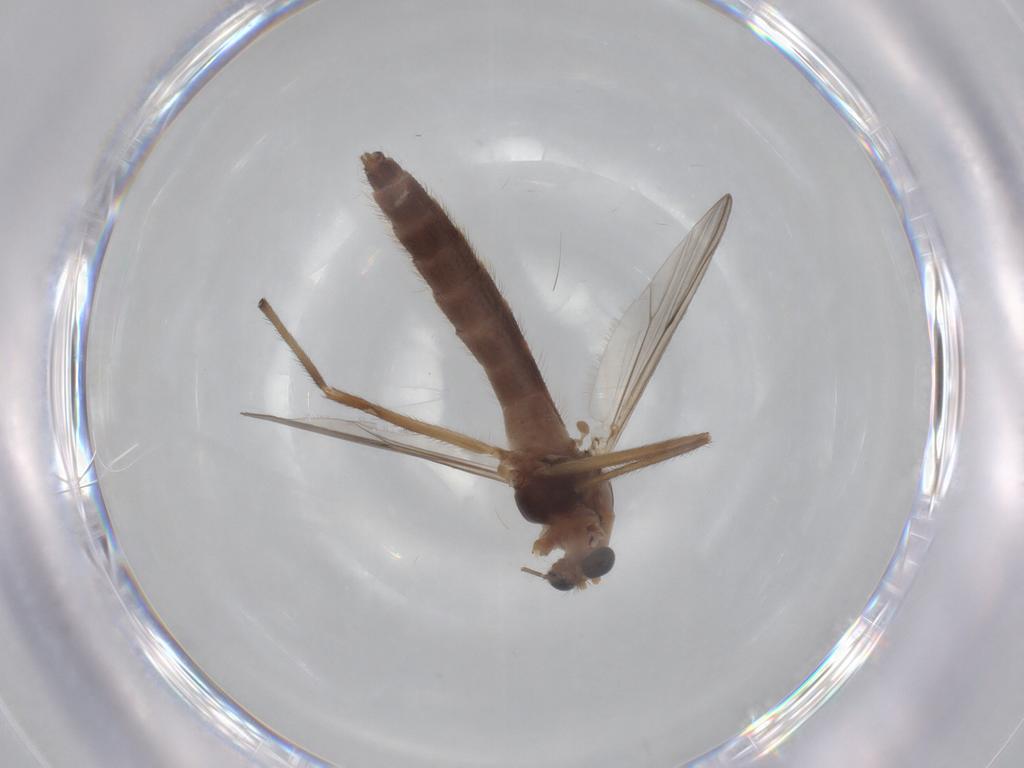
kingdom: Animalia
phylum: Arthropoda
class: Insecta
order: Diptera
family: Chironomidae
